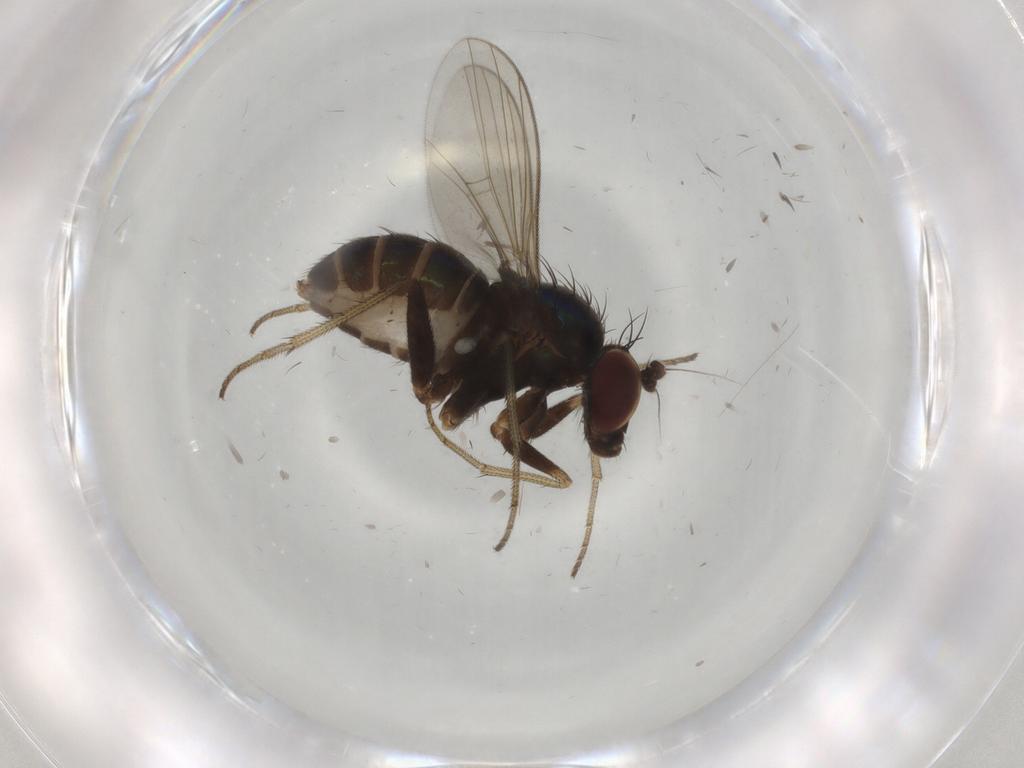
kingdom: Animalia
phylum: Arthropoda
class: Insecta
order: Diptera
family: Dolichopodidae
